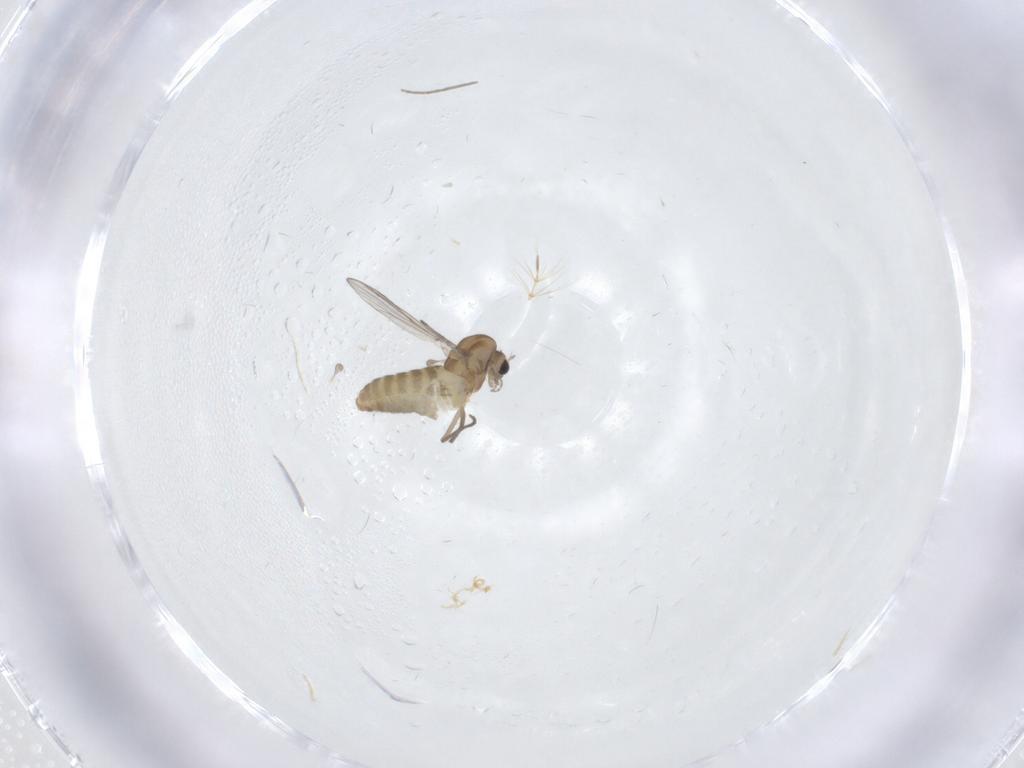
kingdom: Animalia
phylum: Arthropoda
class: Insecta
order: Diptera
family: Chironomidae
